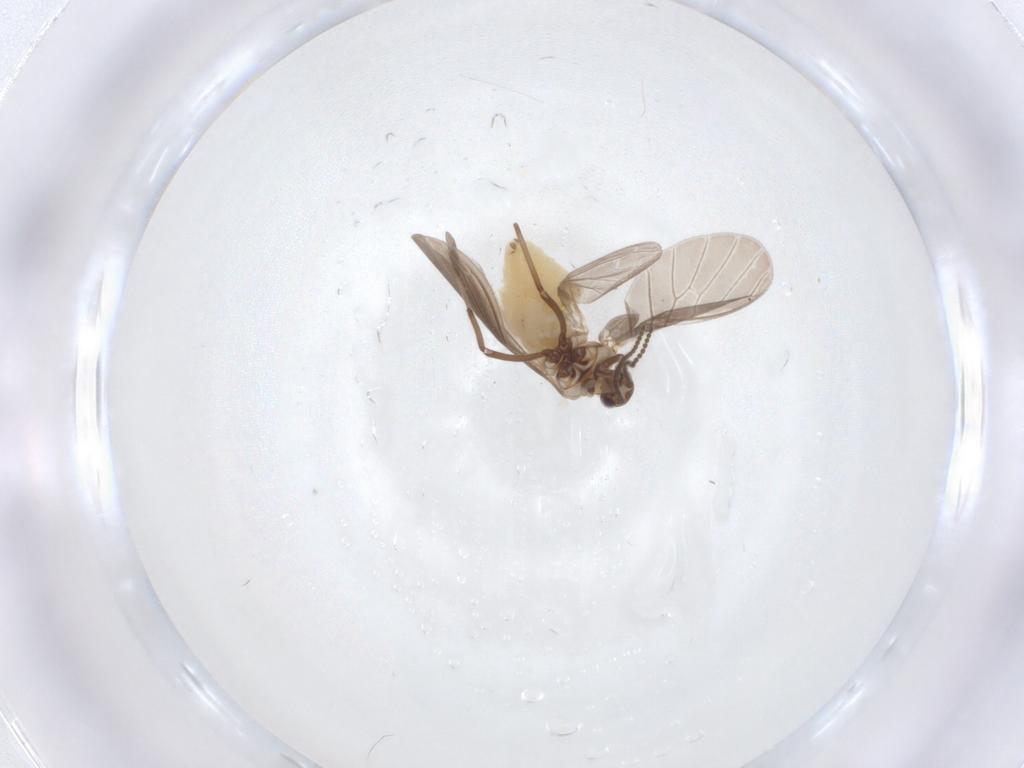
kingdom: Animalia
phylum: Arthropoda
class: Insecta
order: Neuroptera
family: Coniopterygidae
